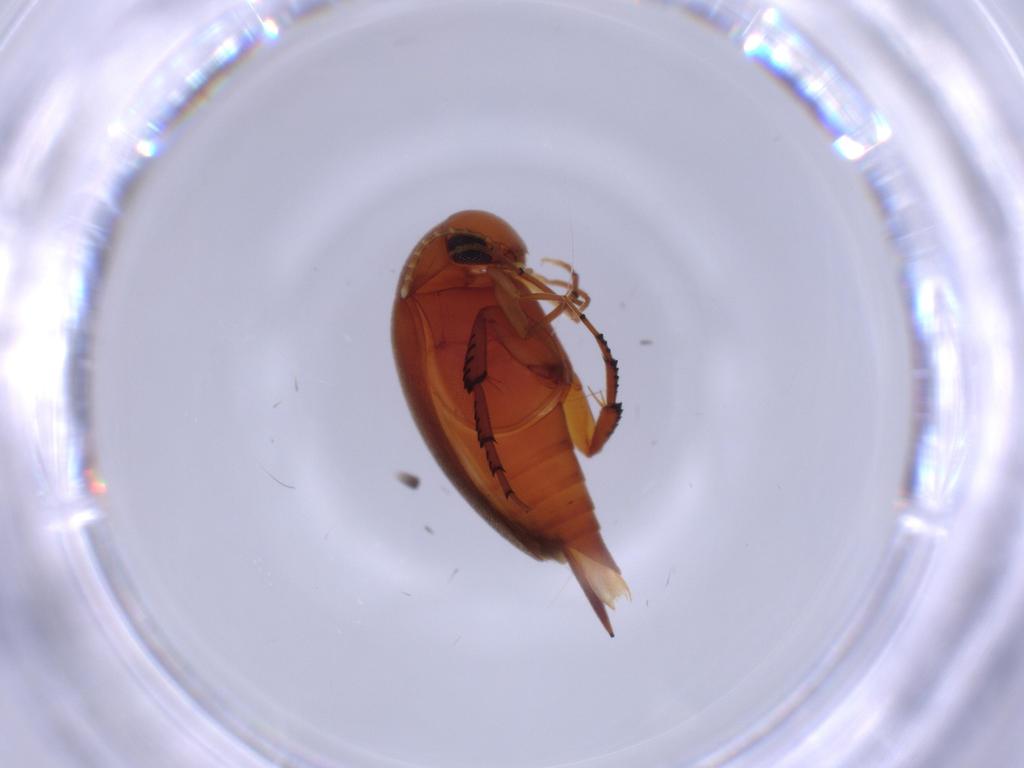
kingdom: Animalia
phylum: Arthropoda
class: Insecta
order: Coleoptera
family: Mordellidae
